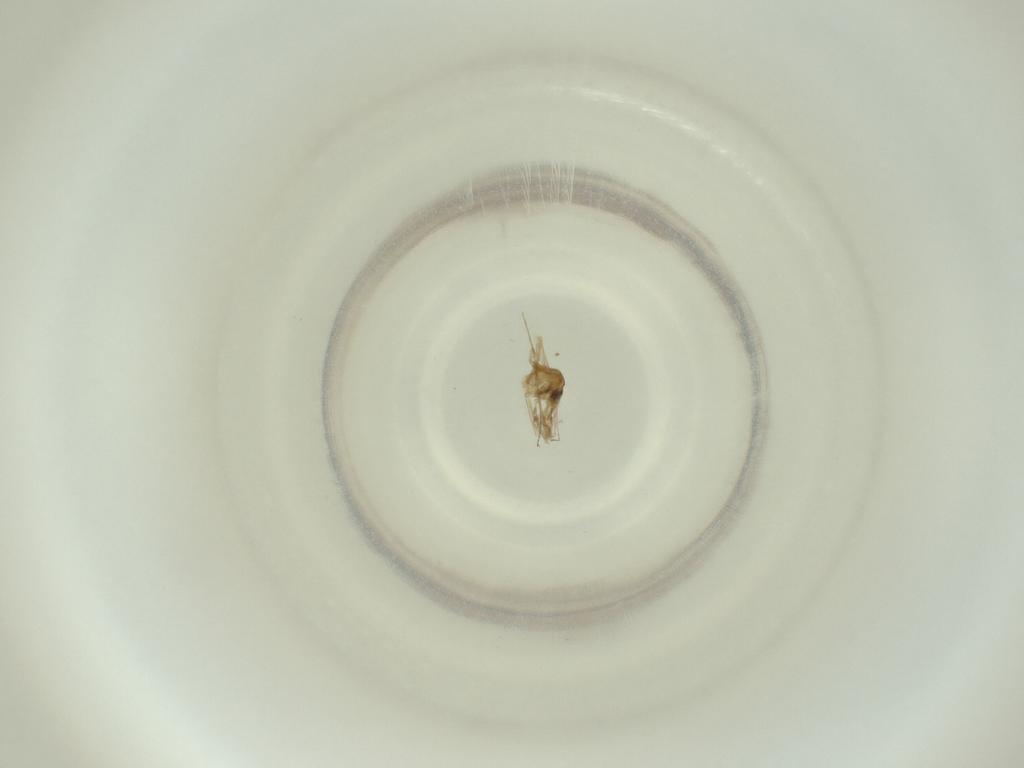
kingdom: Animalia
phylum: Arthropoda
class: Insecta
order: Diptera
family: Cecidomyiidae
